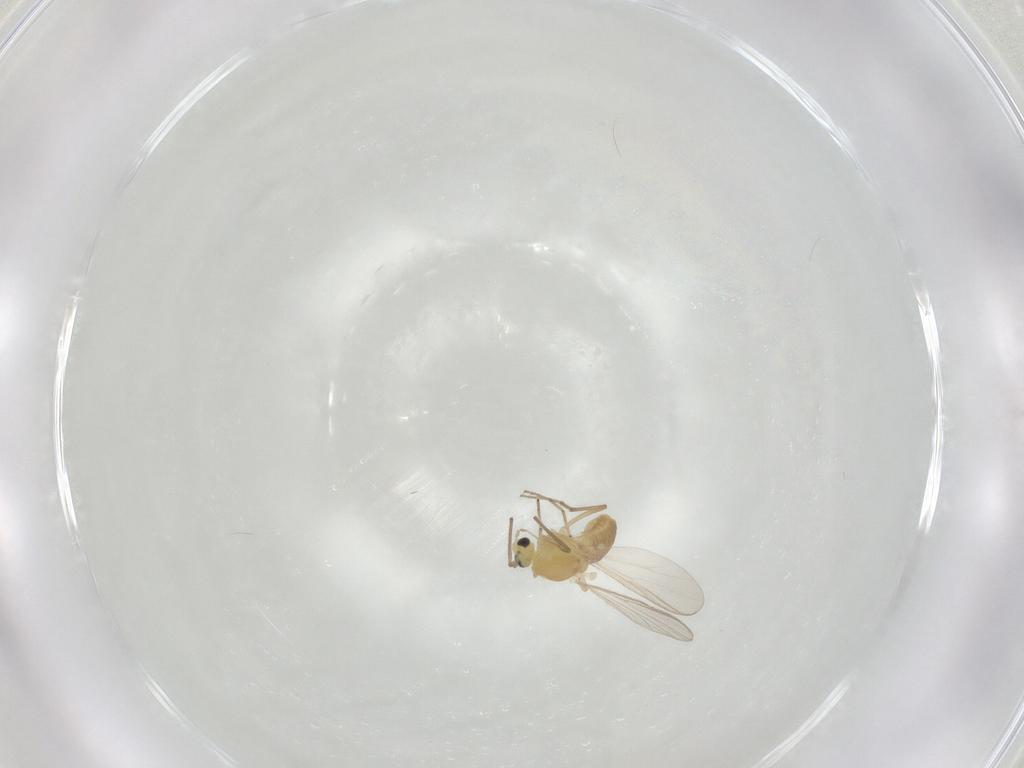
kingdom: Animalia
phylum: Arthropoda
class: Insecta
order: Diptera
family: Chironomidae
